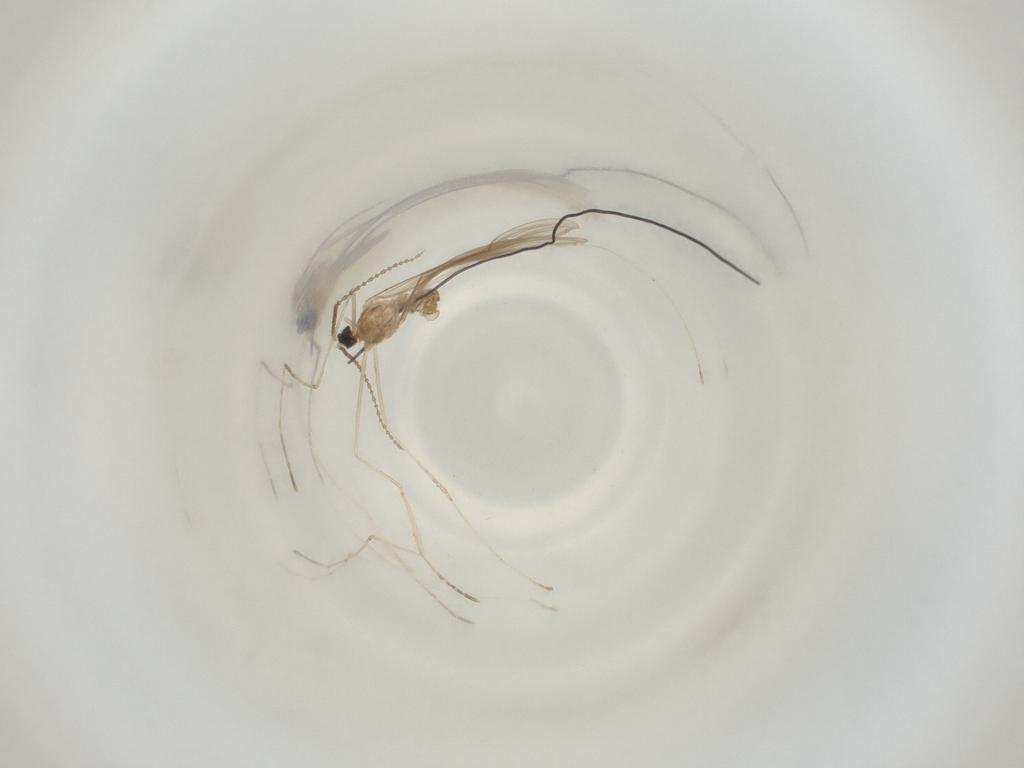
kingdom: Animalia
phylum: Arthropoda
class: Insecta
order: Diptera
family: Cecidomyiidae
